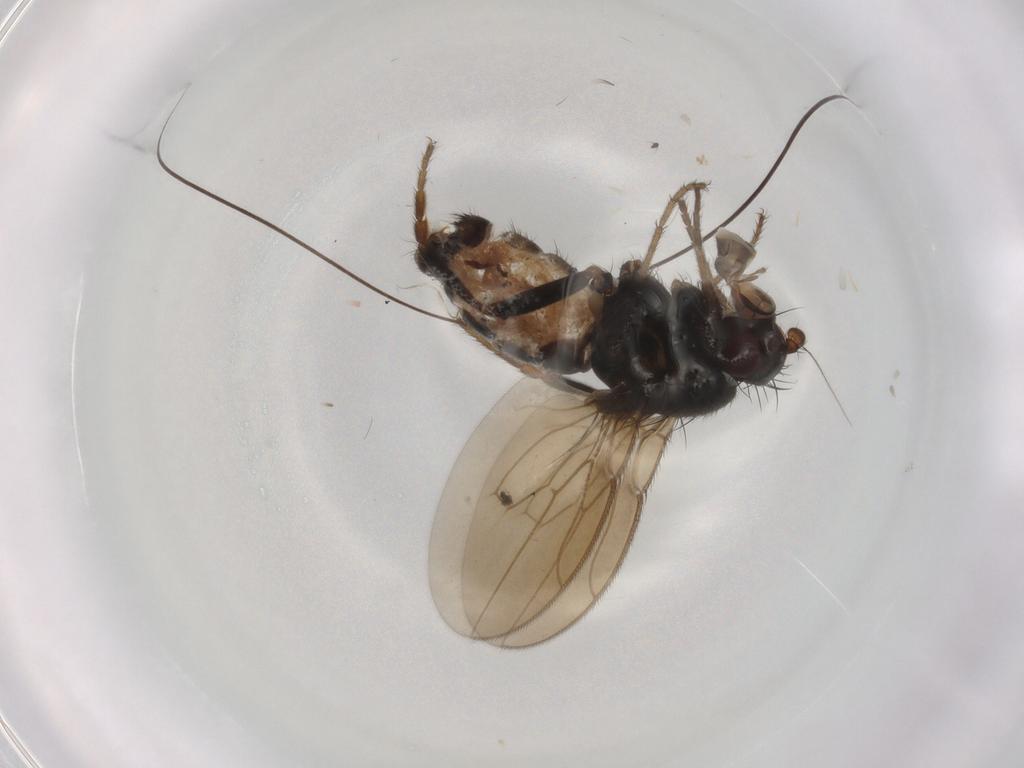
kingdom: Animalia
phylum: Arthropoda
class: Insecta
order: Diptera
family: Sphaeroceridae
